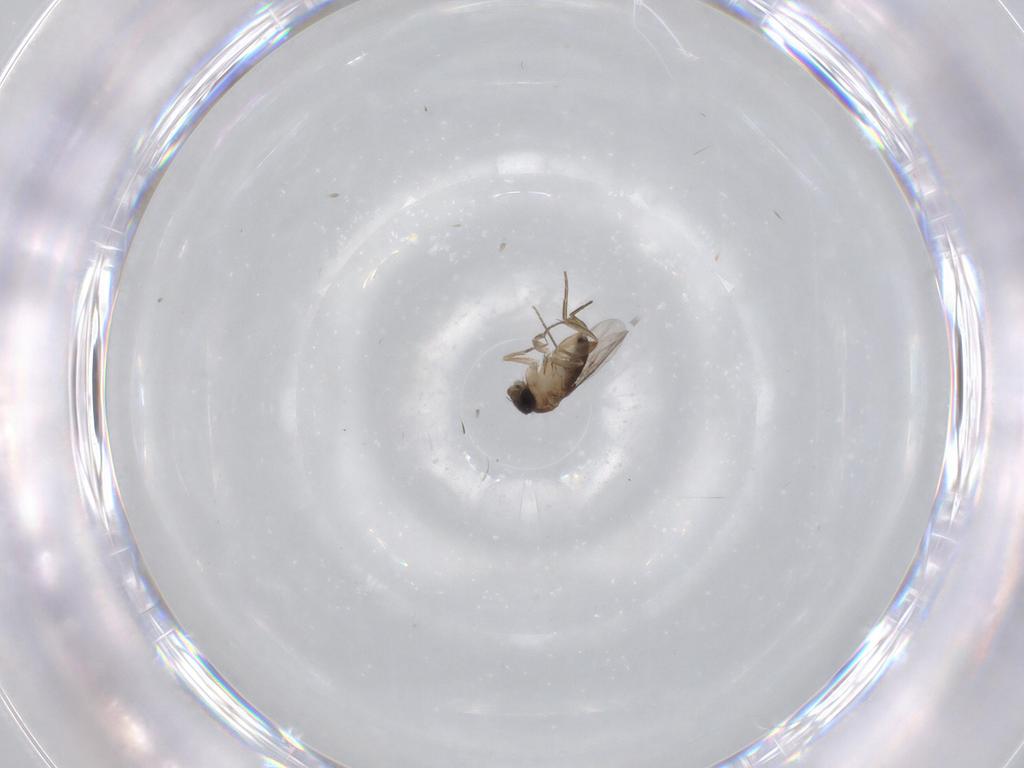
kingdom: Animalia
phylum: Arthropoda
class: Insecta
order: Diptera
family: Phoridae
